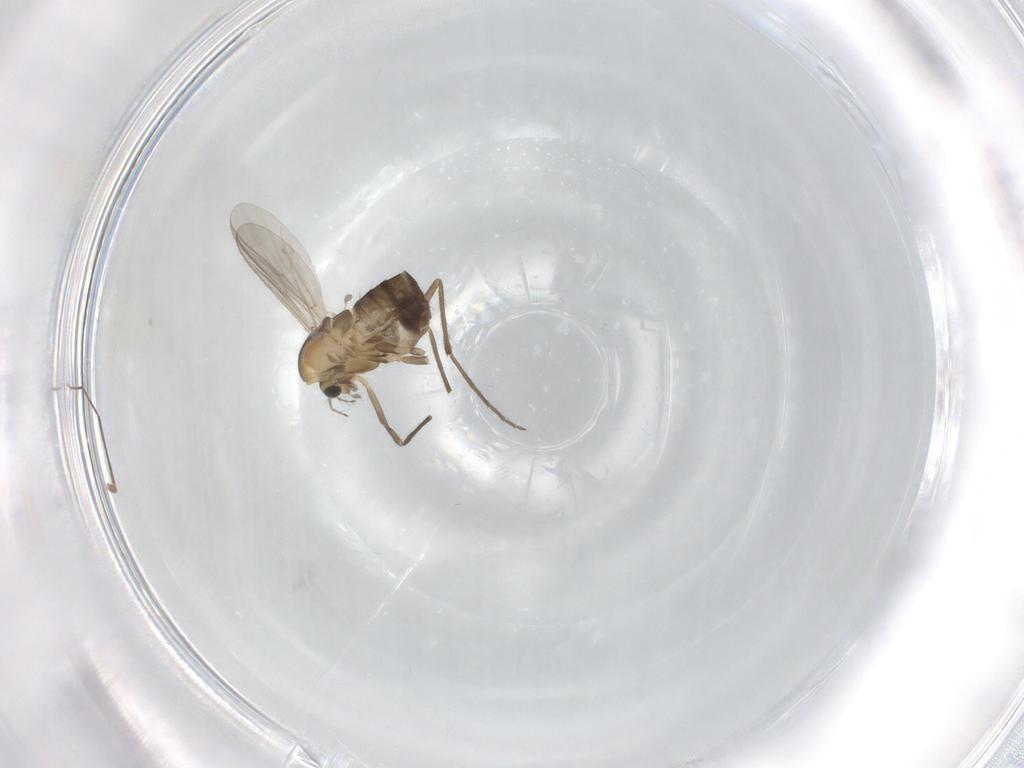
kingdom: Animalia
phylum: Arthropoda
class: Insecta
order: Diptera
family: Chironomidae
